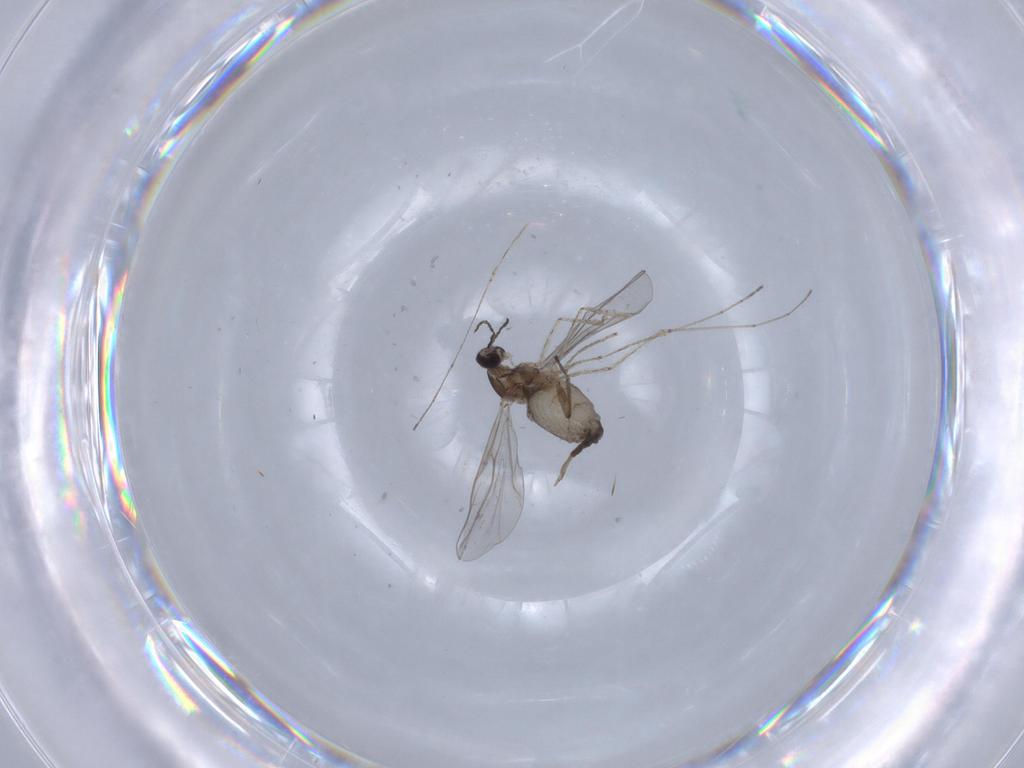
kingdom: Animalia
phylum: Arthropoda
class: Insecta
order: Diptera
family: Cecidomyiidae
